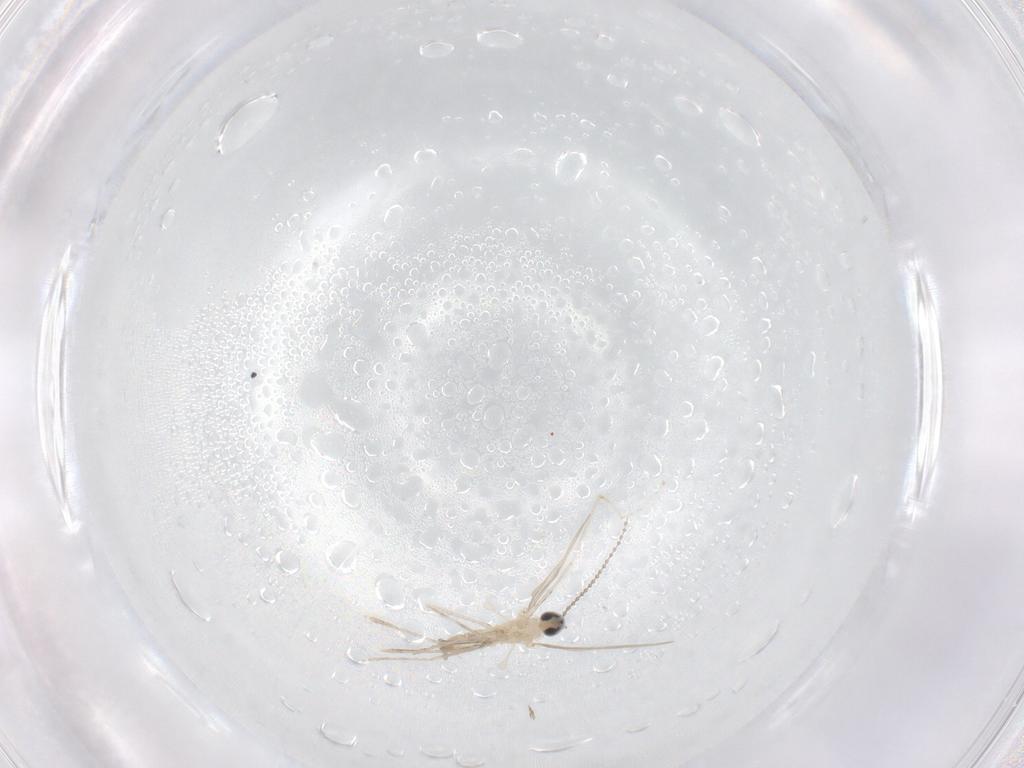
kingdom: Animalia
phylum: Arthropoda
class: Insecta
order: Diptera
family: Cecidomyiidae
